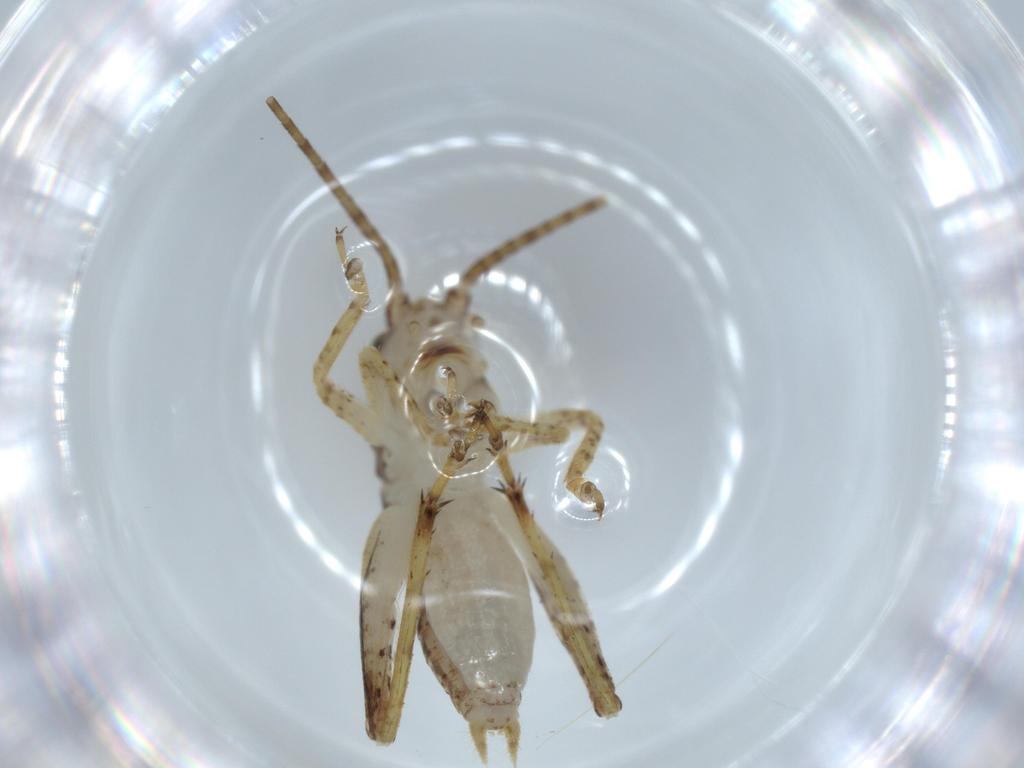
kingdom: Animalia
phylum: Arthropoda
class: Insecta
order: Orthoptera
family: Gryllidae
